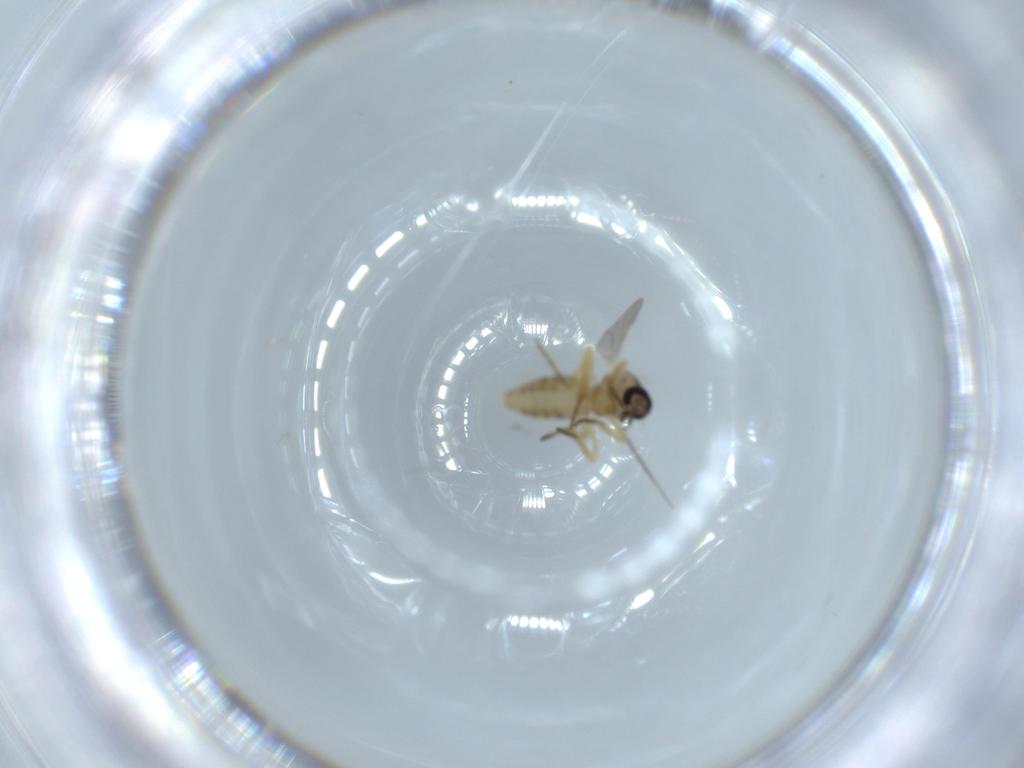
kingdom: Animalia
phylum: Arthropoda
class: Insecta
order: Diptera
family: Ceratopogonidae
